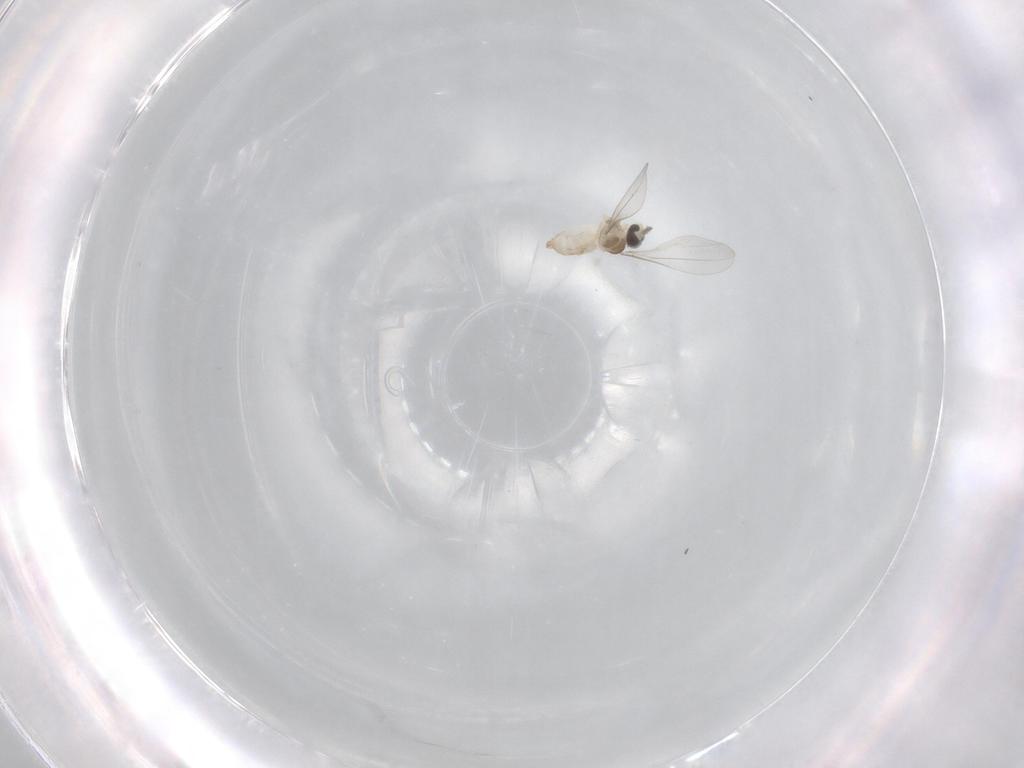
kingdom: Animalia
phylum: Arthropoda
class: Insecta
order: Diptera
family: Cecidomyiidae
